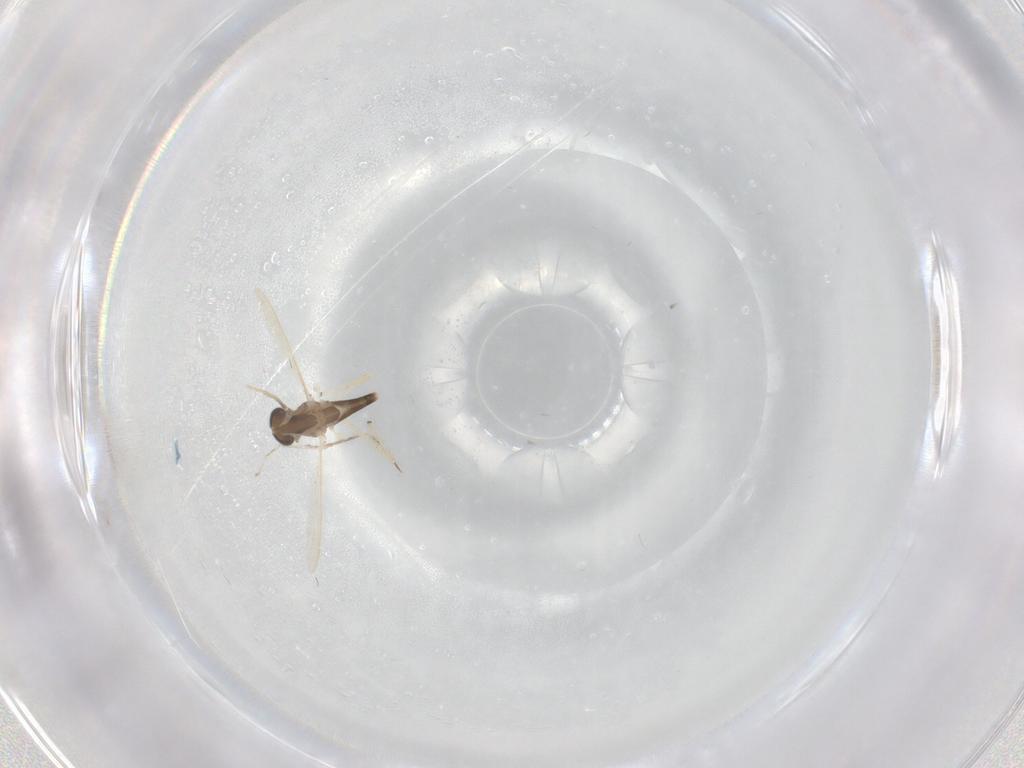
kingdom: Animalia
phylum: Arthropoda
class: Insecta
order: Diptera
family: Chironomidae
